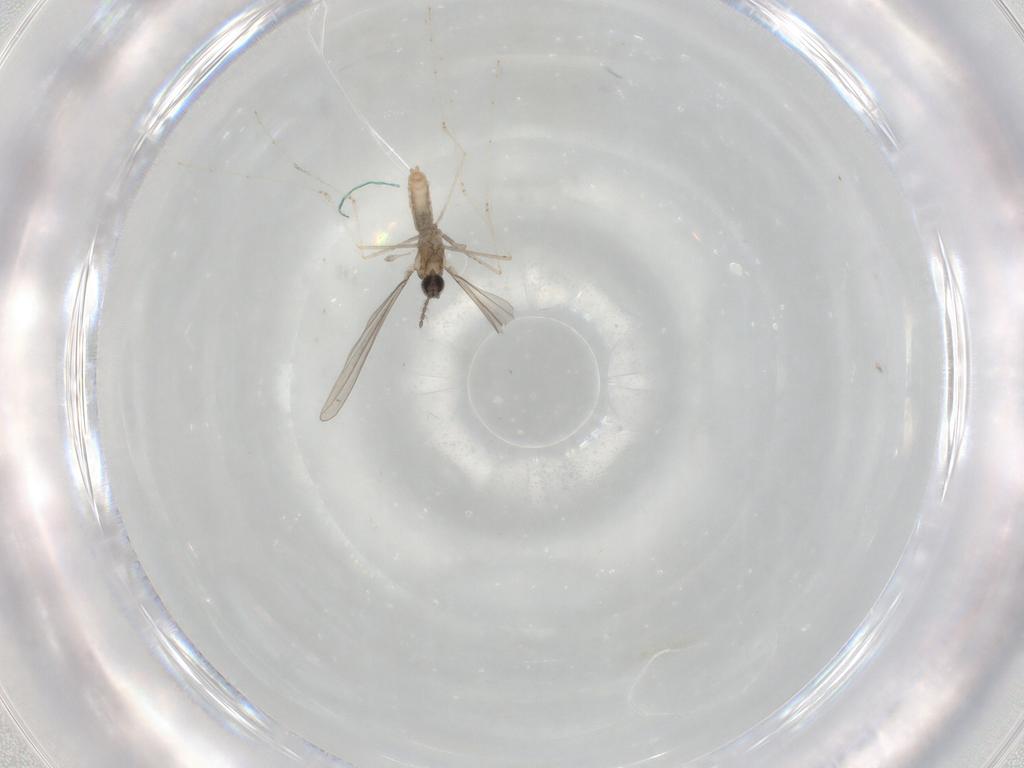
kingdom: Animalia
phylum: Arthropoda
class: Insecta
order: Diptera
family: Cecidomyiidae
